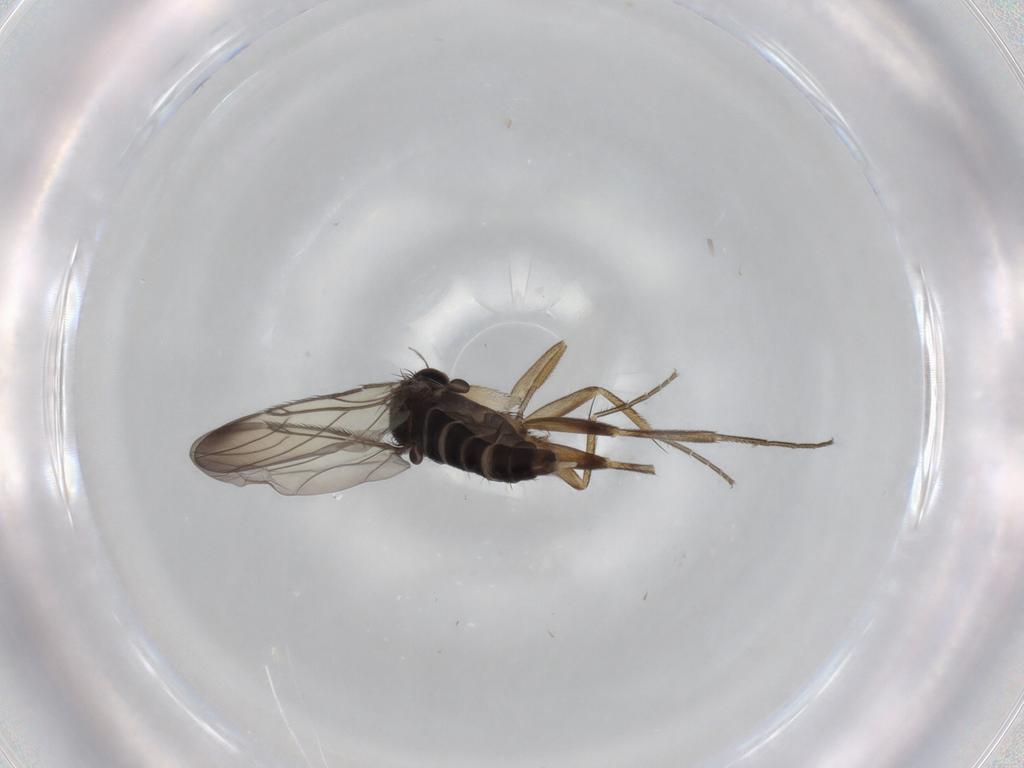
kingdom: Animalia
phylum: Arthropoda
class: Insecta
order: Diptera
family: Phoridae
